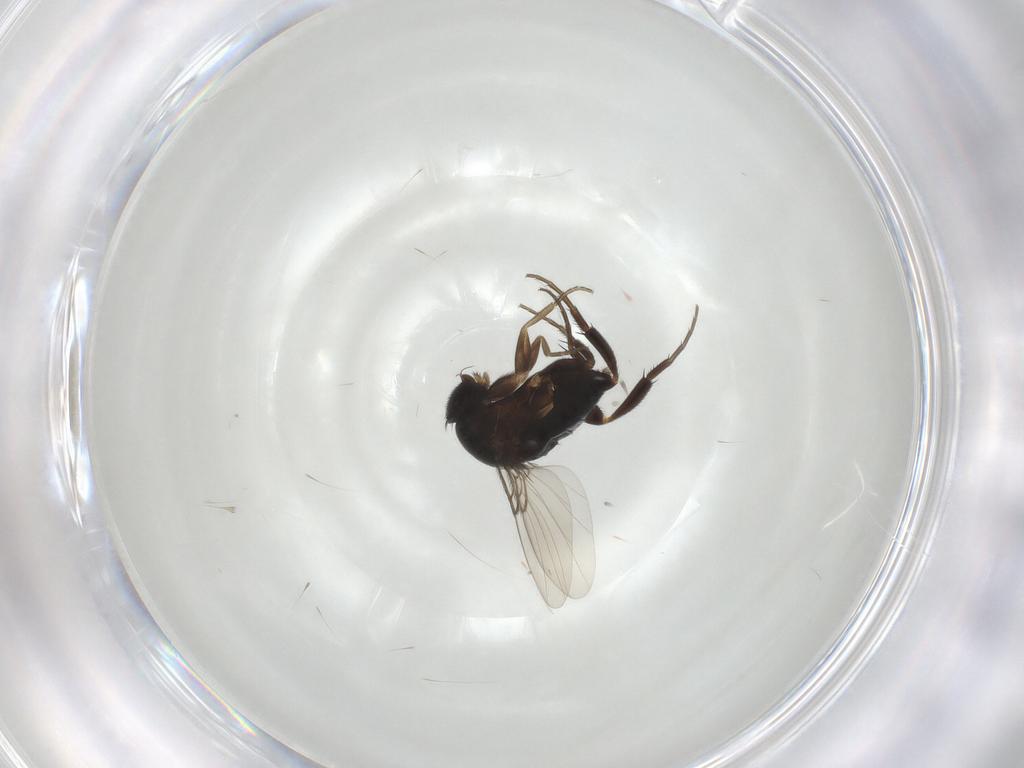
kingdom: Animalia
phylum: Arthropoda
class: Insecta
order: Diptera
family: Phoridae
